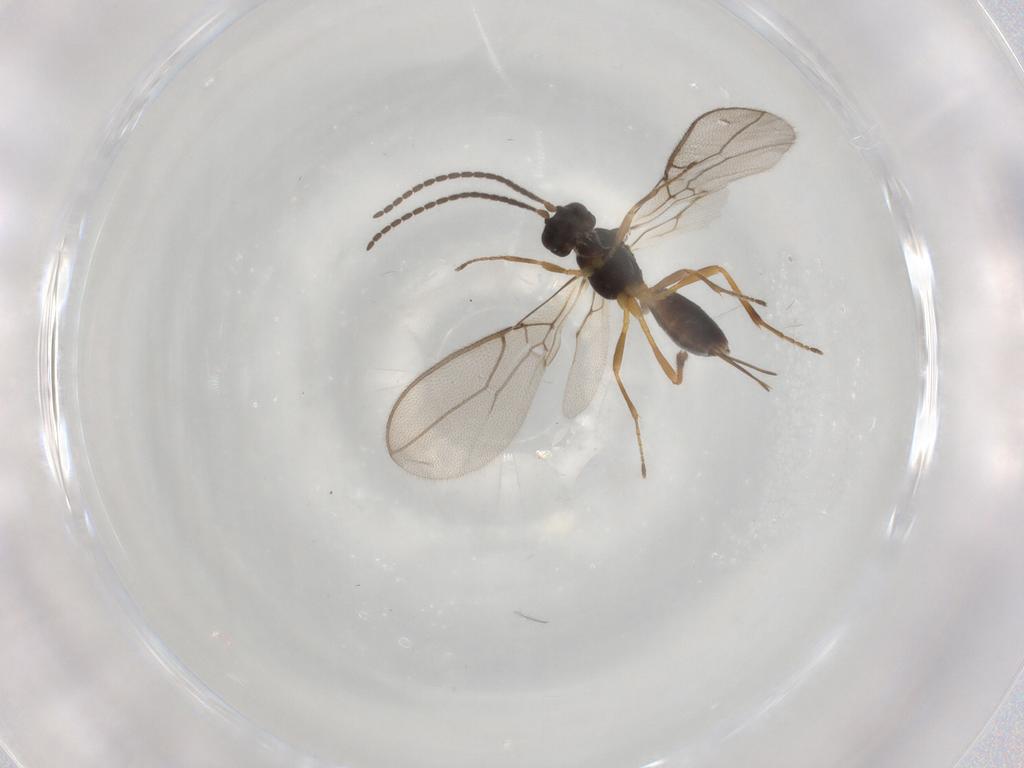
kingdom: Animalia
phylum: Arthropoda
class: Insecta
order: Hymenoptera
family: Braconidae
